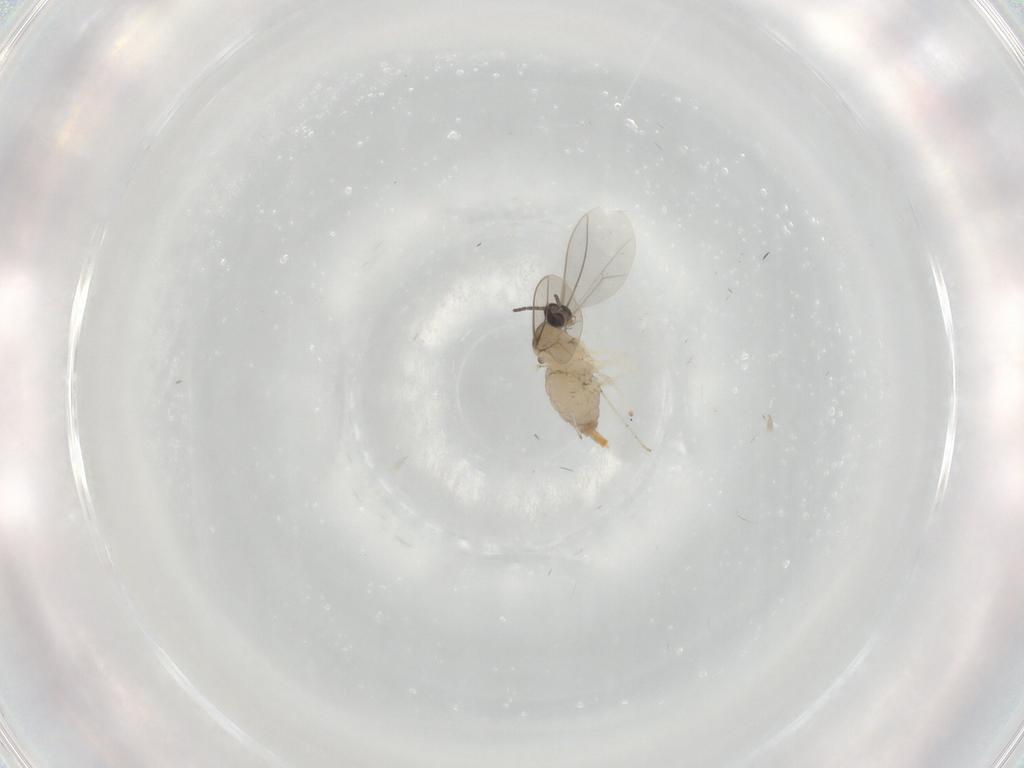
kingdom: Animalia
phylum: Arthropoda
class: Insecta
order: Diptera
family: Cecidomyiidae
